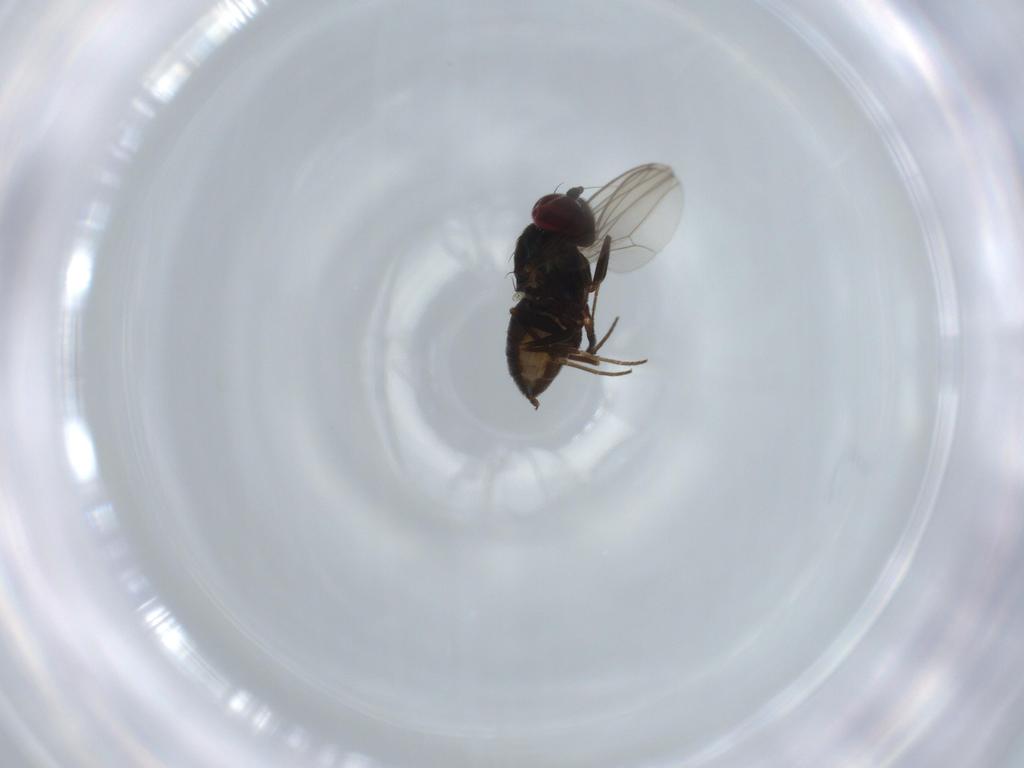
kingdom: Animalia
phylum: Arthropoda
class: Insecta
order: Diptera
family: Dolichopodidae
